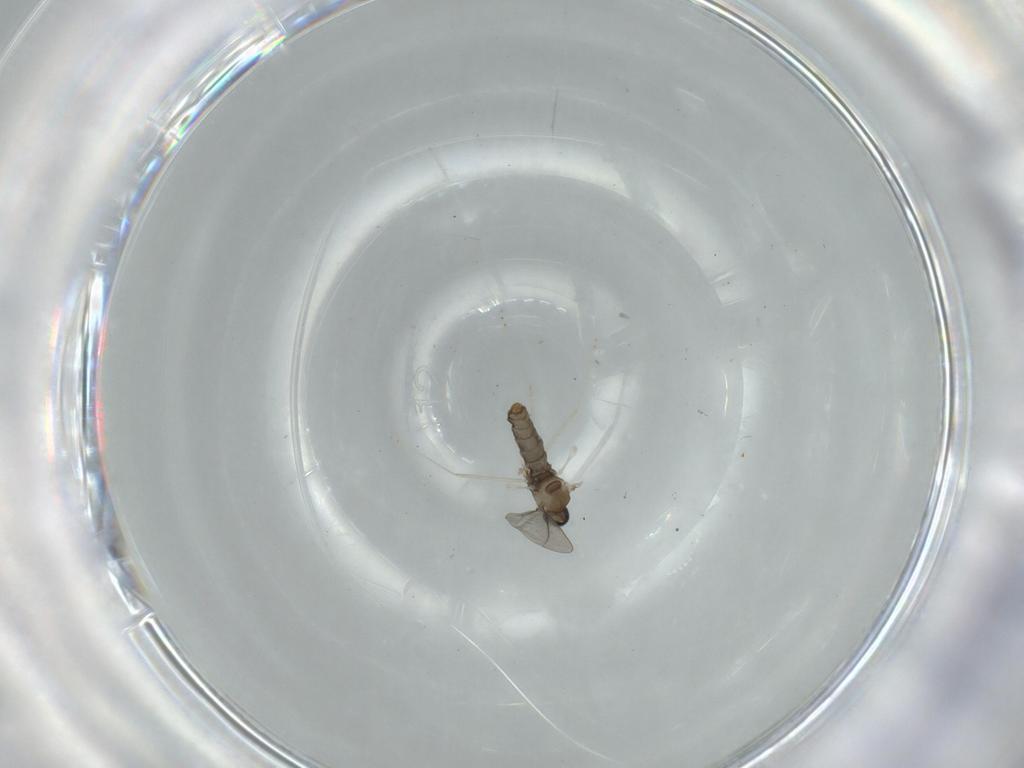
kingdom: Animalia
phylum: Arthropoda
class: Insecta
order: Diptera
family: Cecidomyiidae
